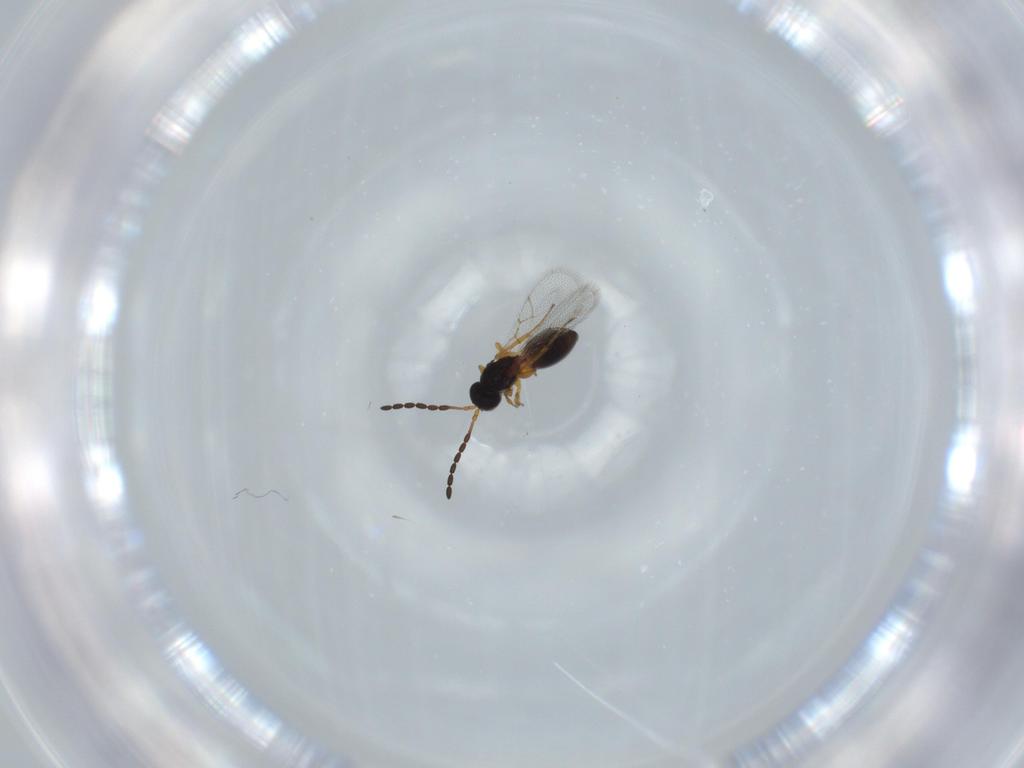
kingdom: Animalia
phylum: Arthropoda
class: Insecta
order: Hymenoptera
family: Figitidae
